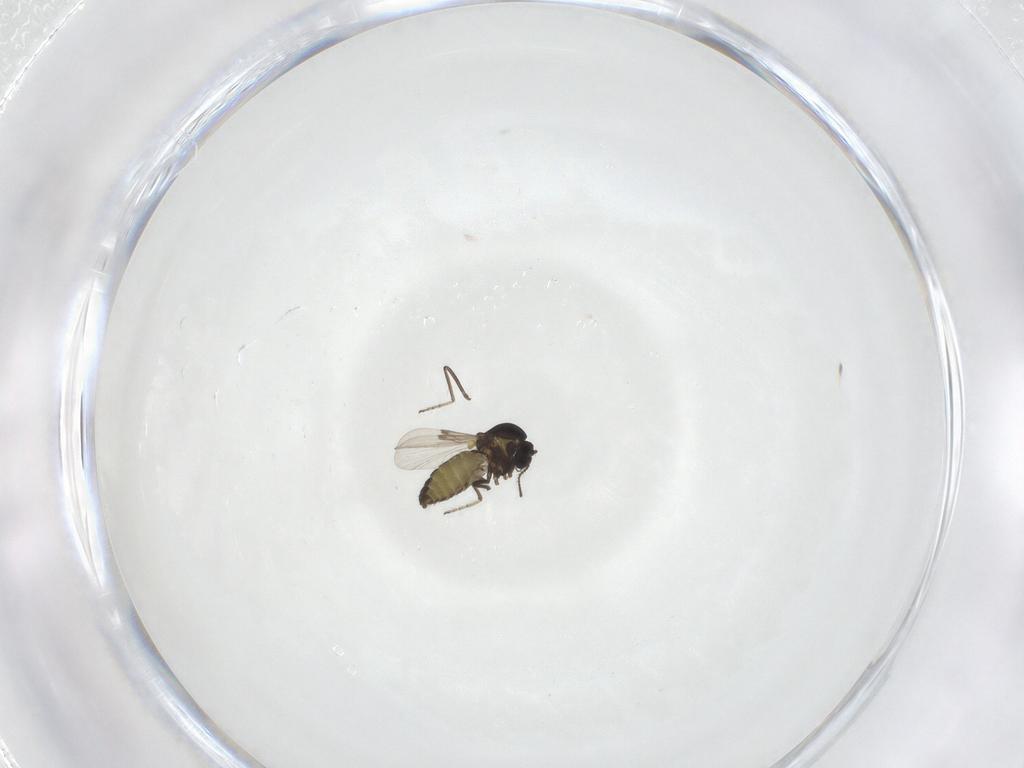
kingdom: Animalia
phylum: Arthropoda
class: Insecta
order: Diptera
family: Ceratopogonidae
